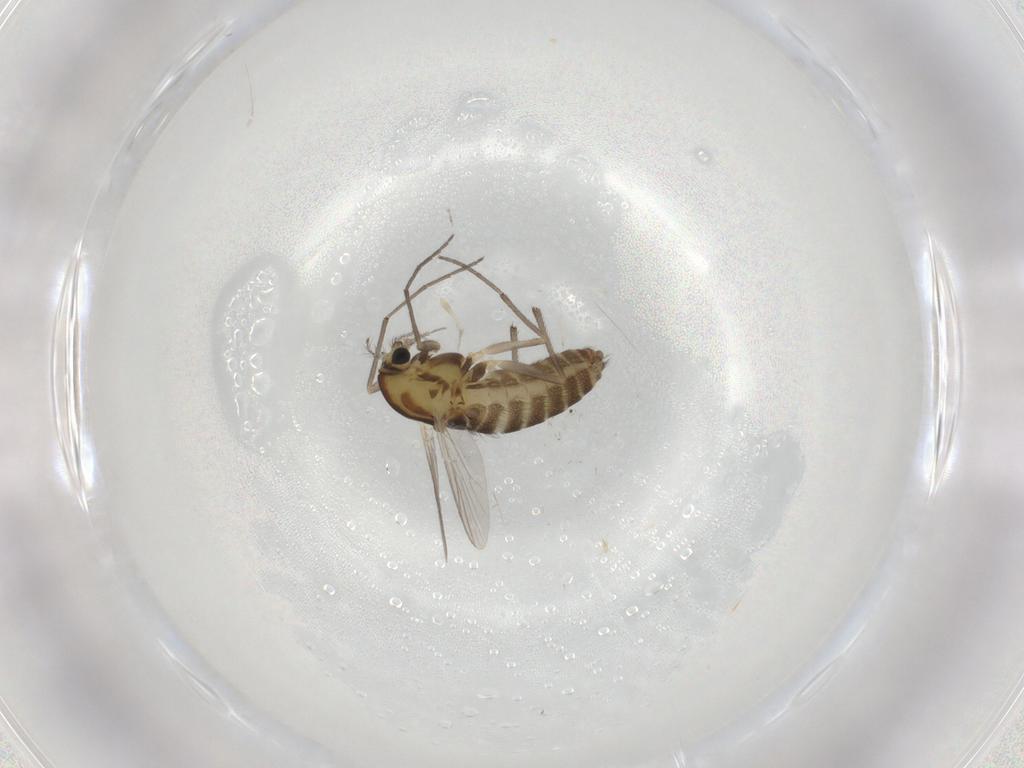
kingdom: Animalia
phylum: Arthropoda
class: Insecta
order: Diptera
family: Chironomidae
